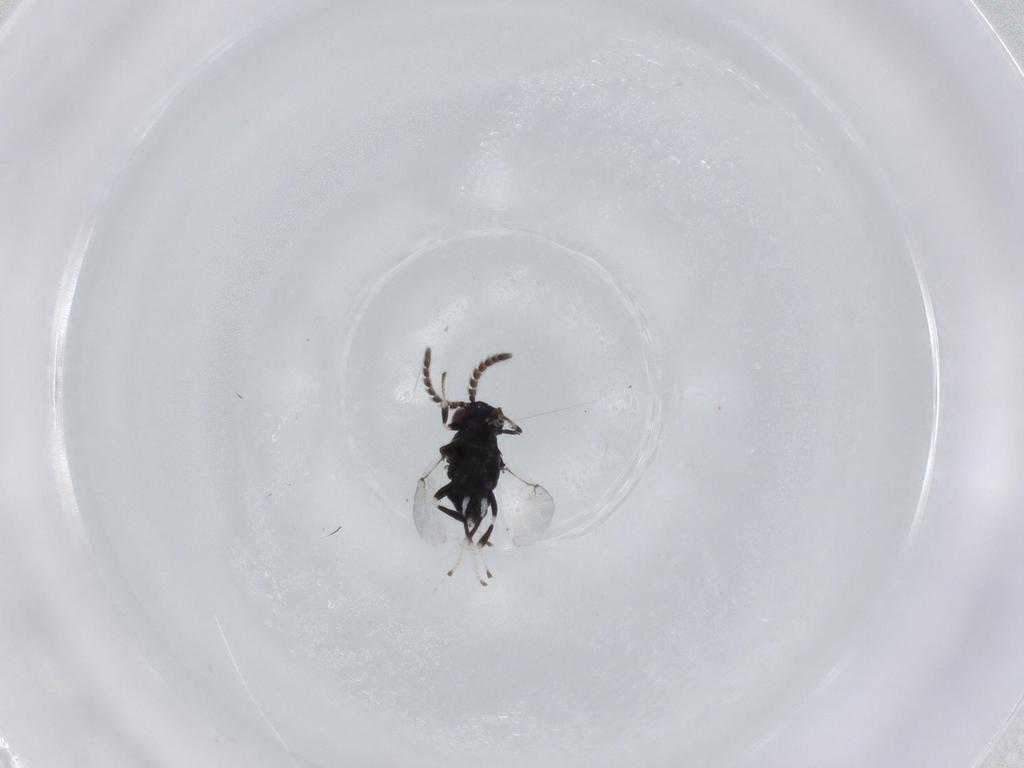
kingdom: Animalia
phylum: Arthropoda
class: Insecta
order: Hymenoptera
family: Encyrtidae
